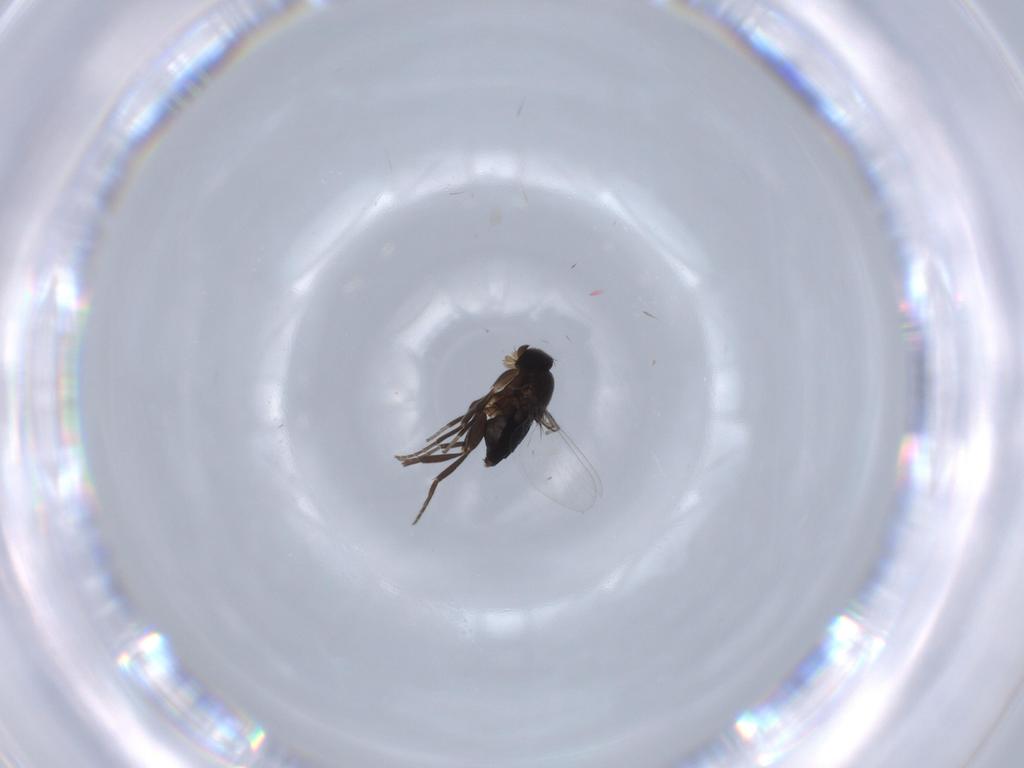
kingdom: Animalia
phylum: Arthropoda
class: Insecta
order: Diptera
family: Phoridae
